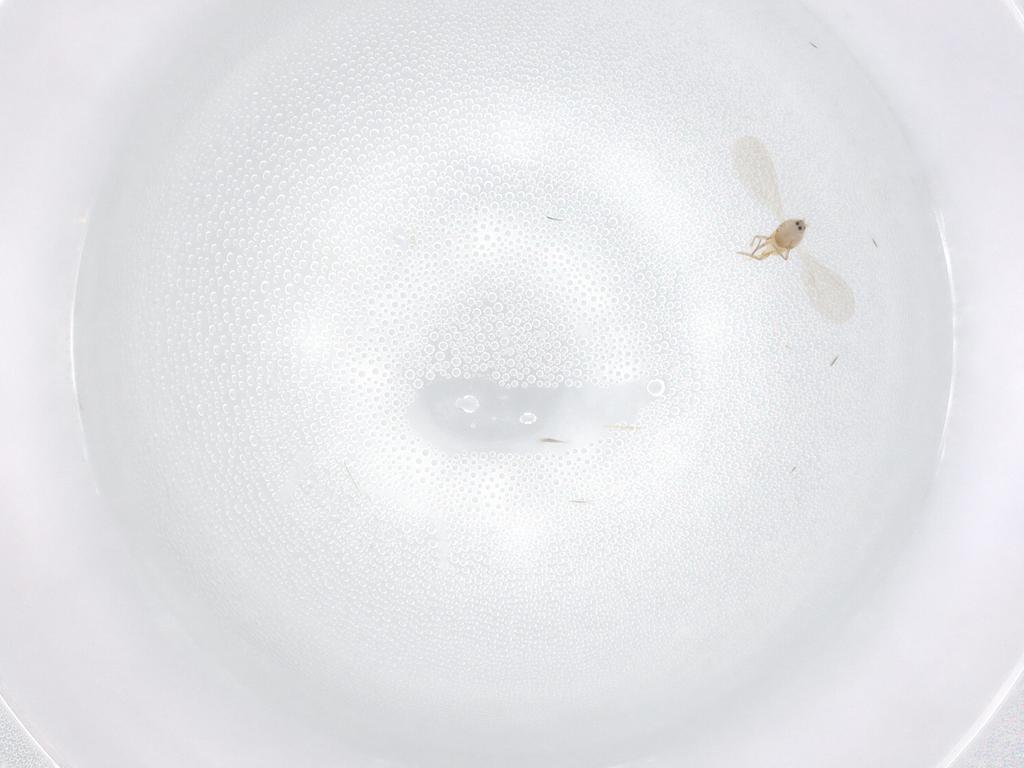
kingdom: Animalia
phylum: Arthropoda
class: Insecta
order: Hemiptera
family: Diaspididae
